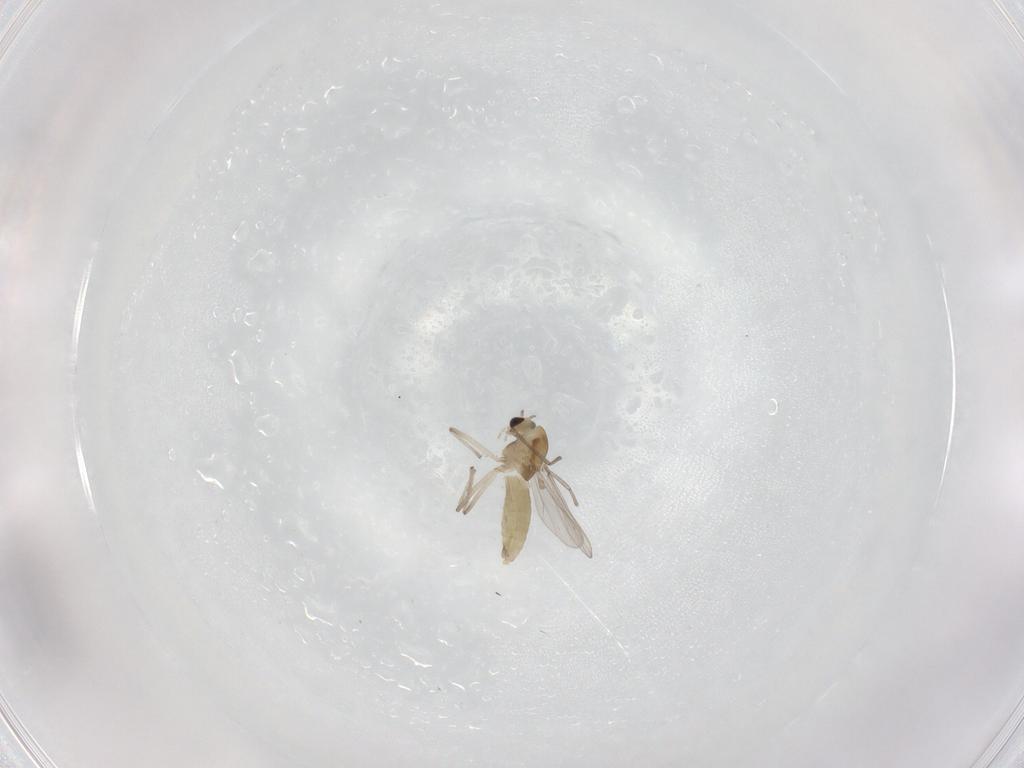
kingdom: Animalia
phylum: Arthropoda
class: Insecta
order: Diptera
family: Chironomidae
